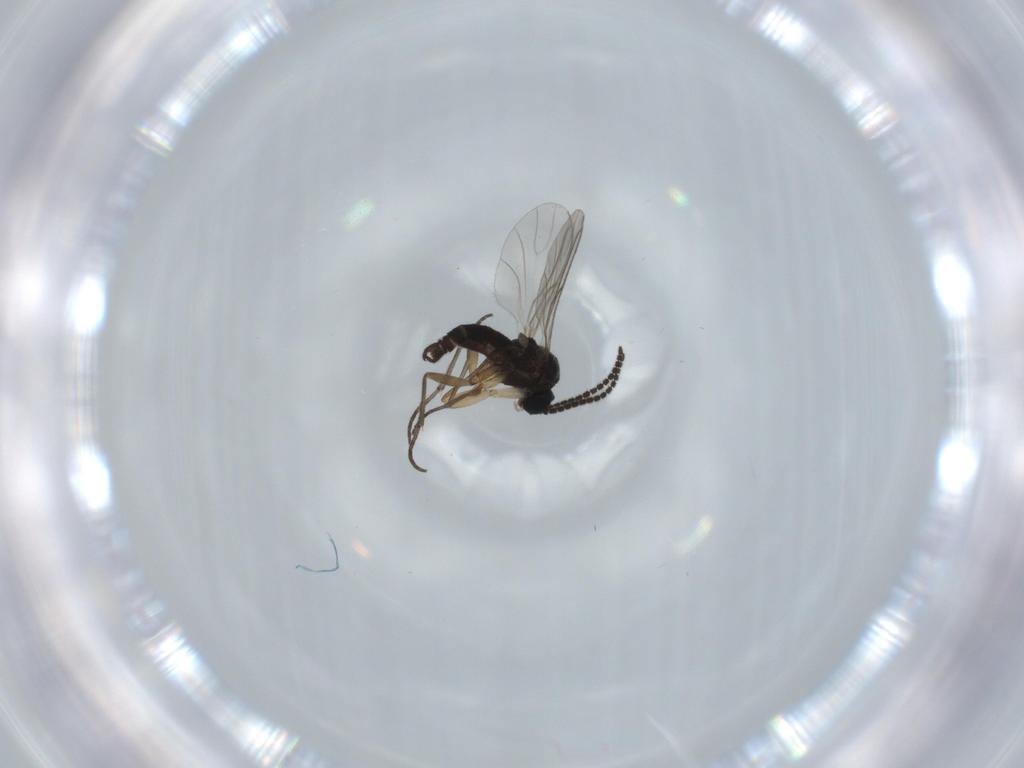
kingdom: Animalia
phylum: Arthropoda
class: Insecta
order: Diptera
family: Sciaridae
